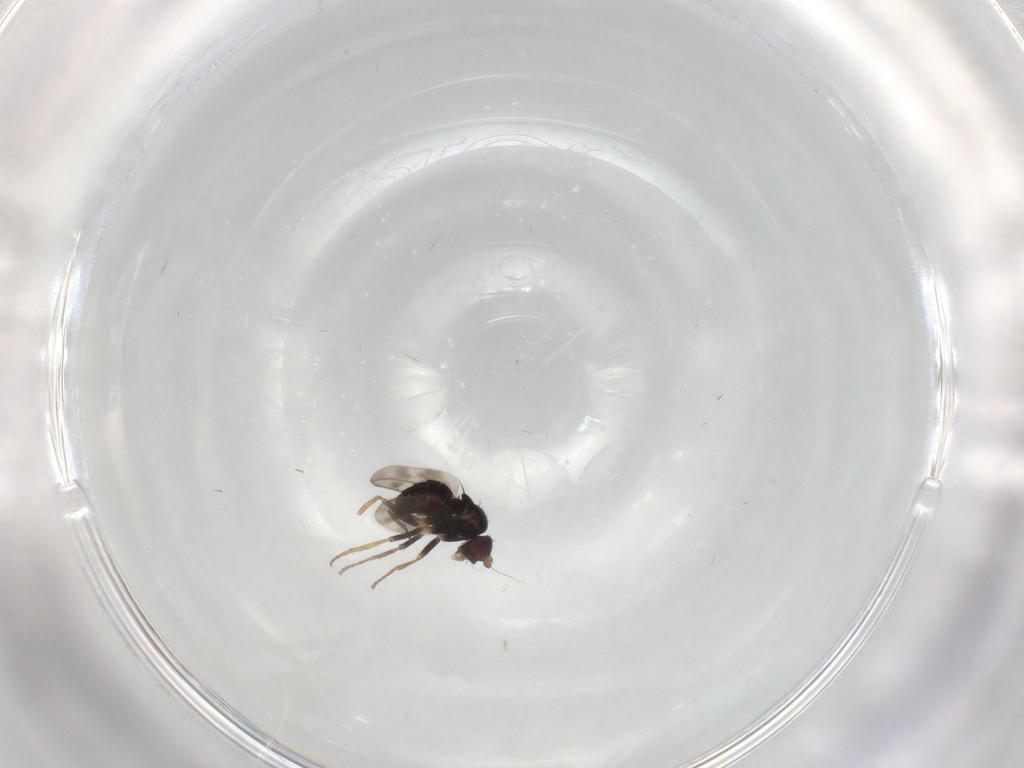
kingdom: Animalia
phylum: Arthropoda
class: Insecta
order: Diptera
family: Sphaeroceridae
